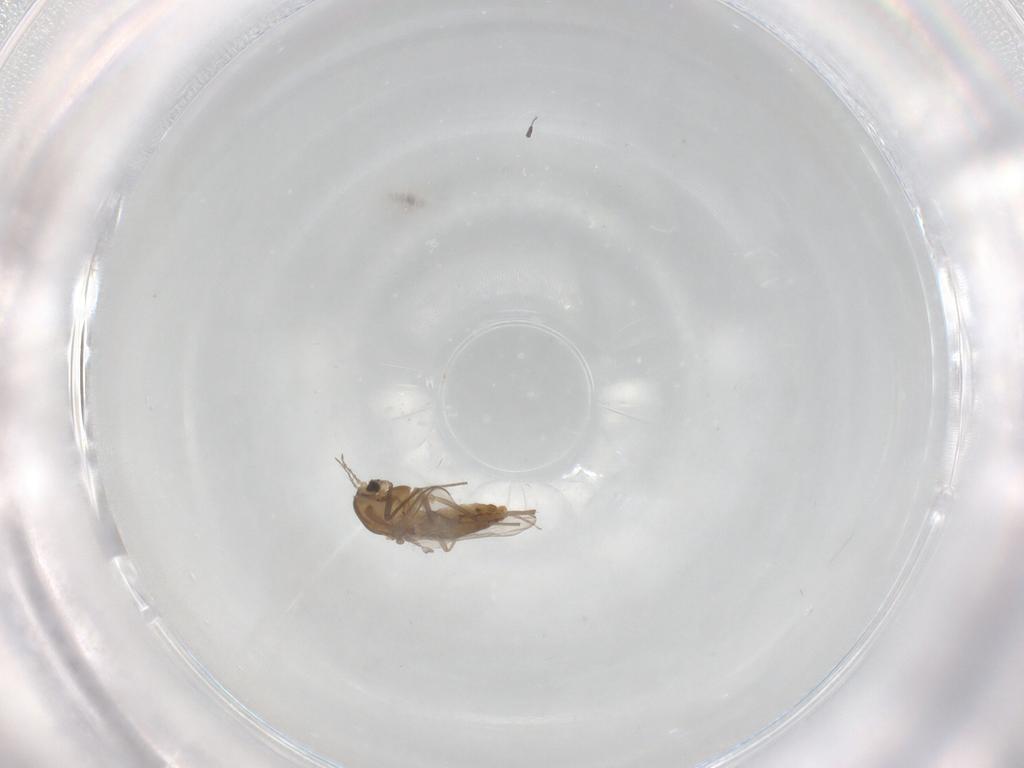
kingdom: Animalia
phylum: Arthropoda
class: Insecta
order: Diptera
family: Chironomidae
